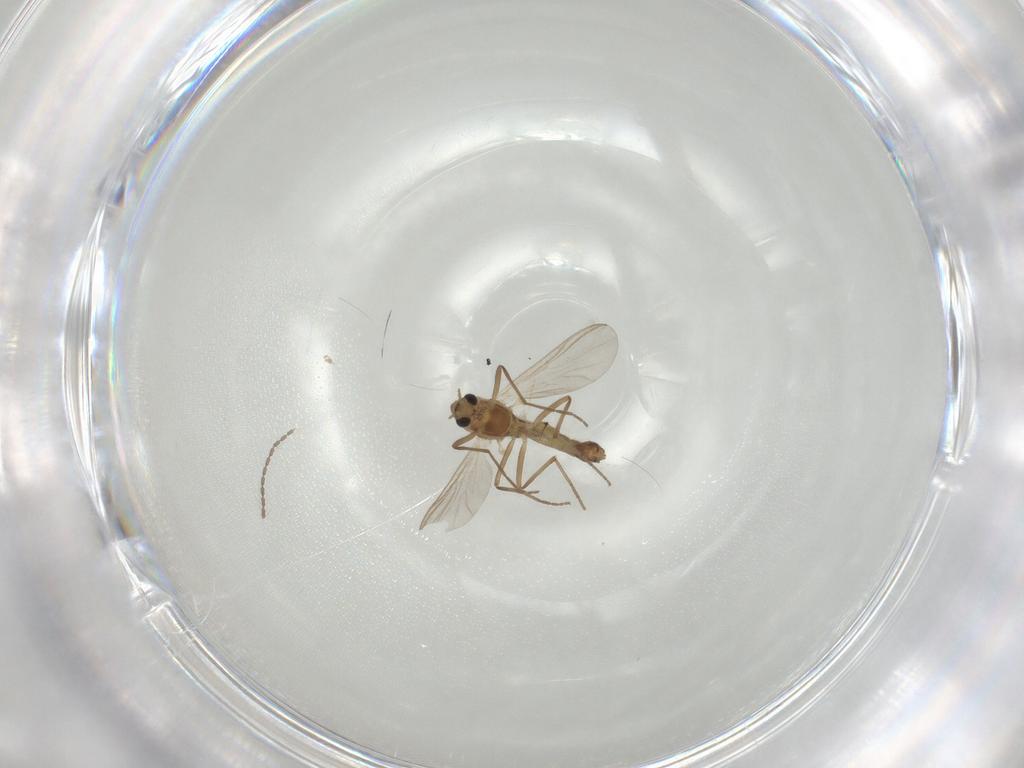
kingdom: Animalia
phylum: Arthropoda
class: Insecta
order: Diptera
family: Chironomidae
